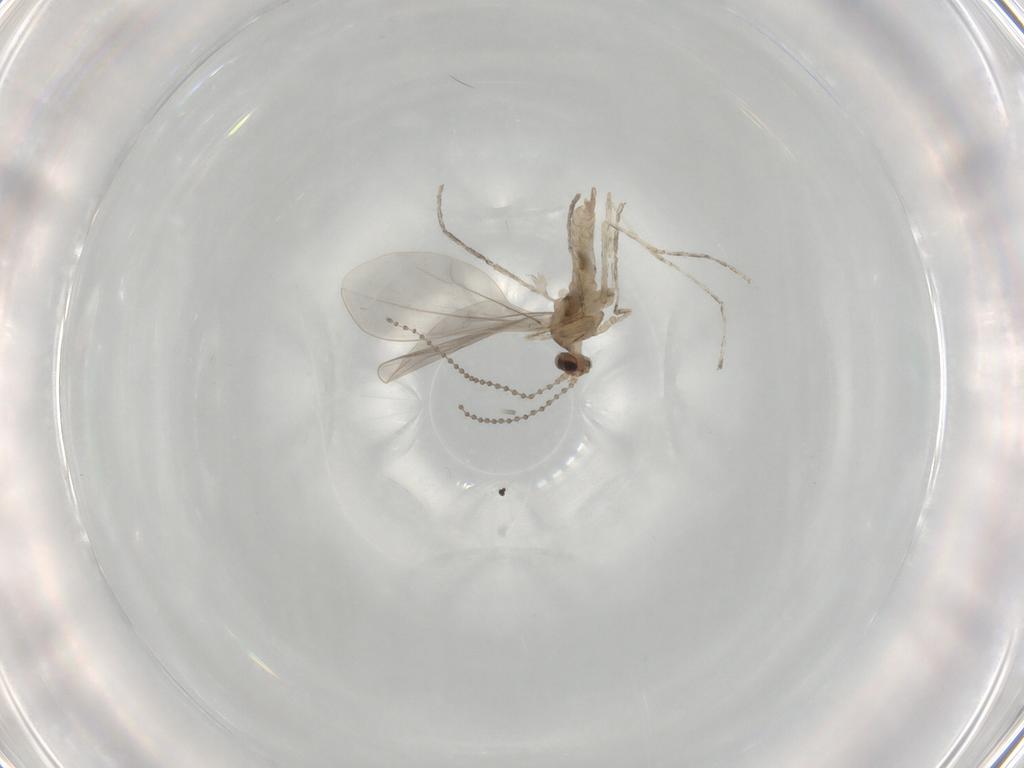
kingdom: Animalia
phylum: Arthropoda
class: Insecta
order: Diptera
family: Cecidomyiidae
